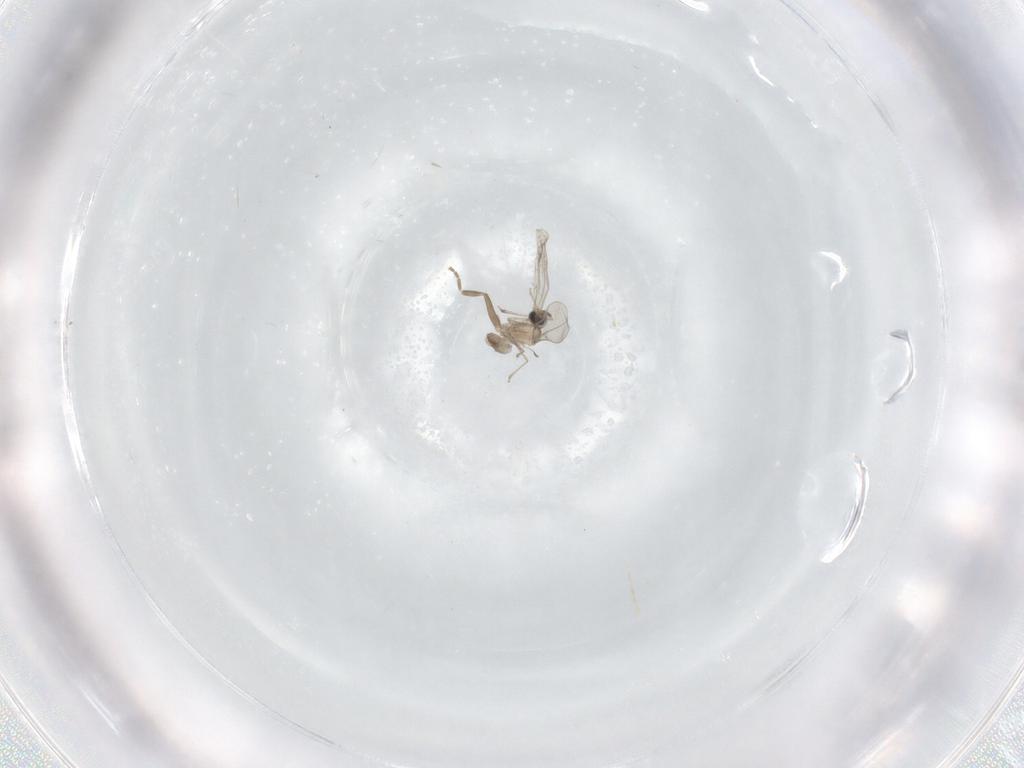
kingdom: Animalia
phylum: Arthropoda
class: Insecta
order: Diptera
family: Cecidomyiidae
